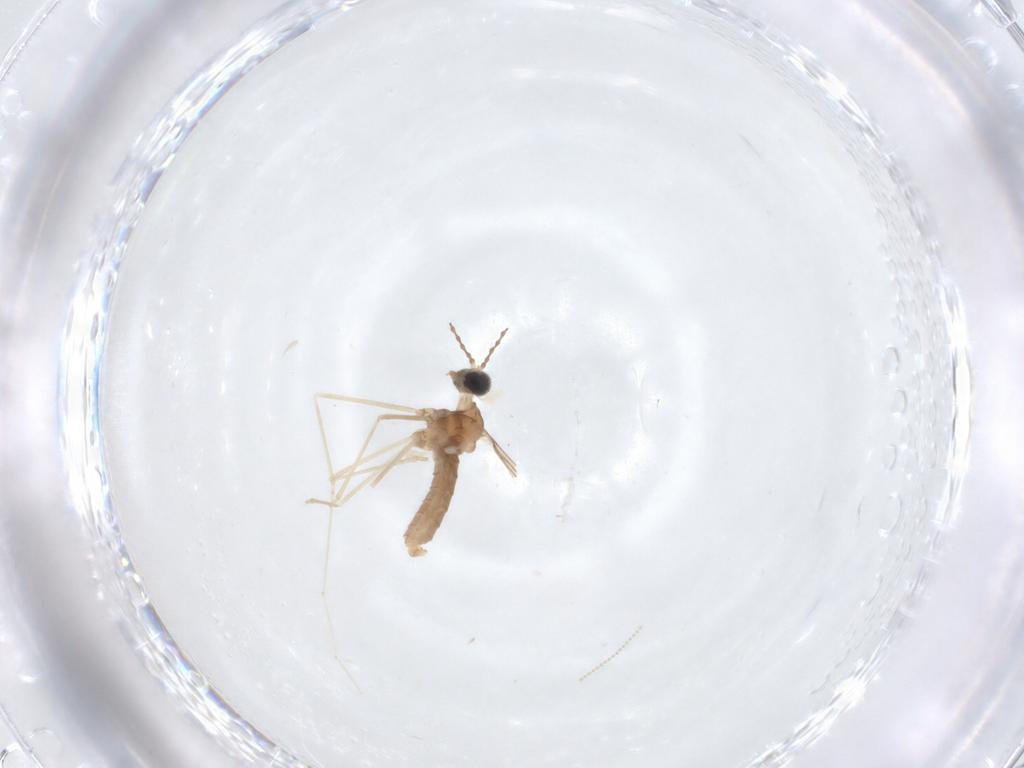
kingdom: Animalia
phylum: Arthropoda
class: Insecta
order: Diptera
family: Cecidomyiidae
